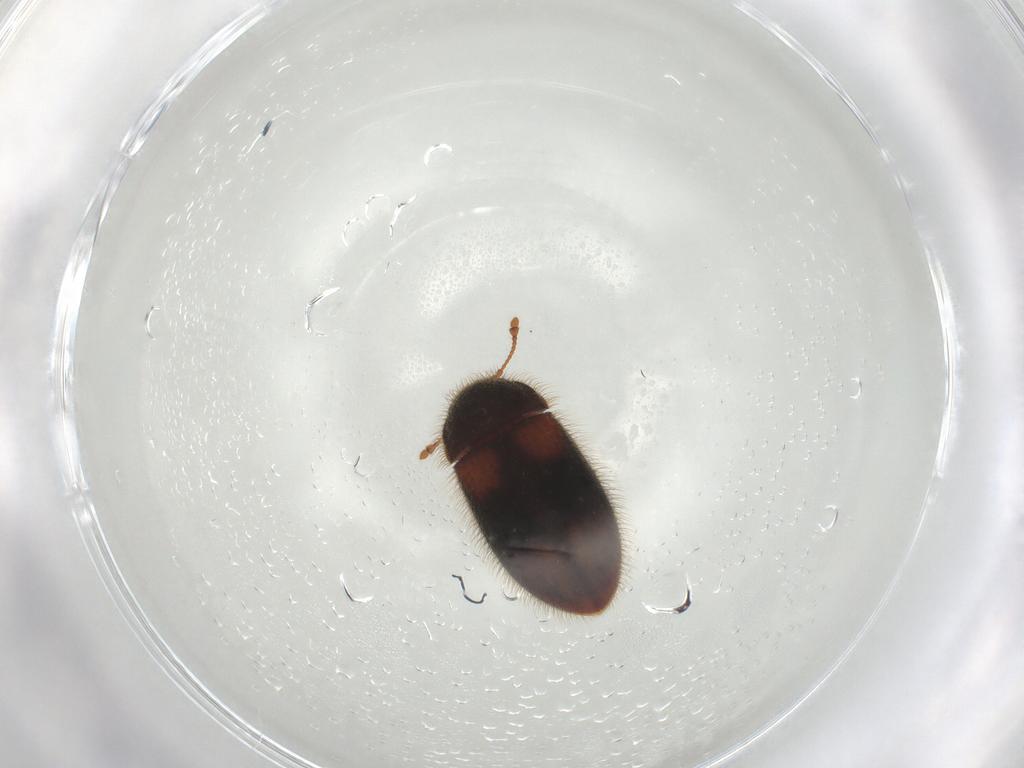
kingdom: Animalia
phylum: Arthropoda
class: Insecta
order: Coleoptera
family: Biphyllidae
